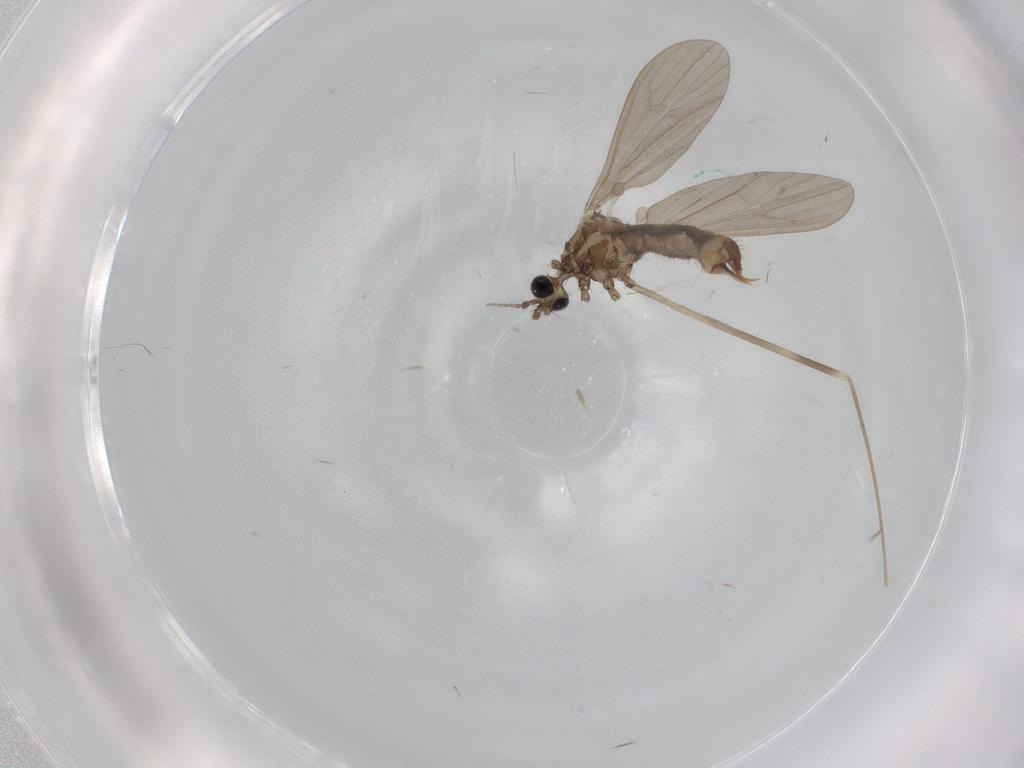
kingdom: Animalia
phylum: Arthropoda
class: Insecta
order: Diptera
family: Limoniidae
